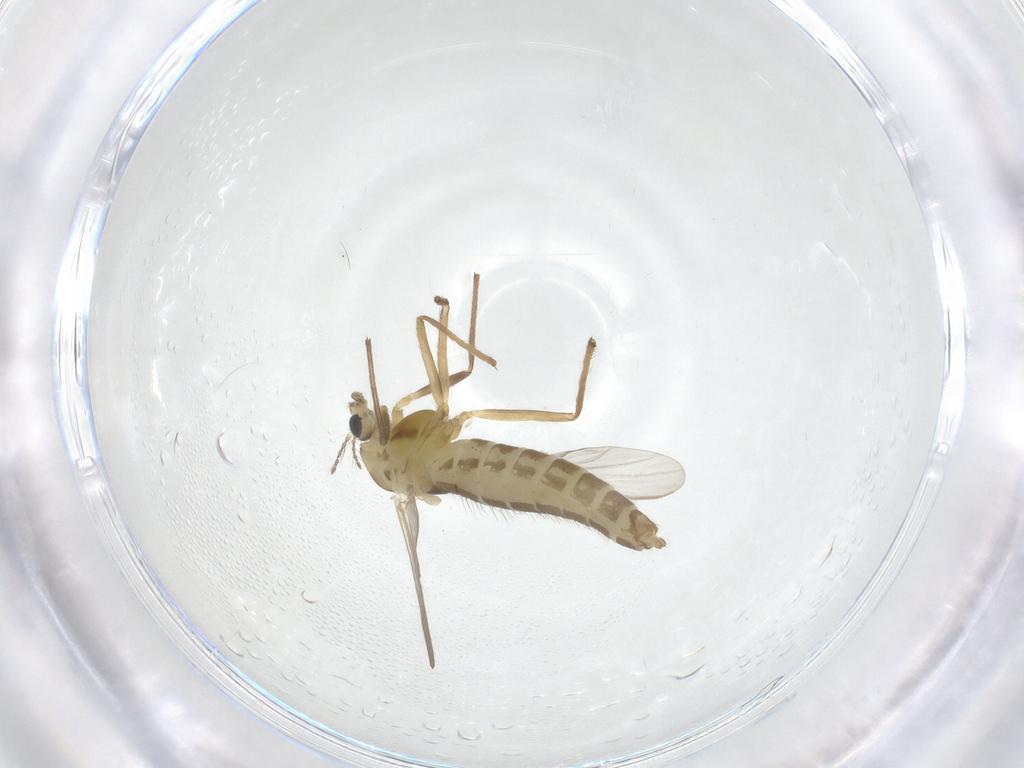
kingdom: Animalia
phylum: Arthropoda
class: Insecta
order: Diptera
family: Chironomidae
